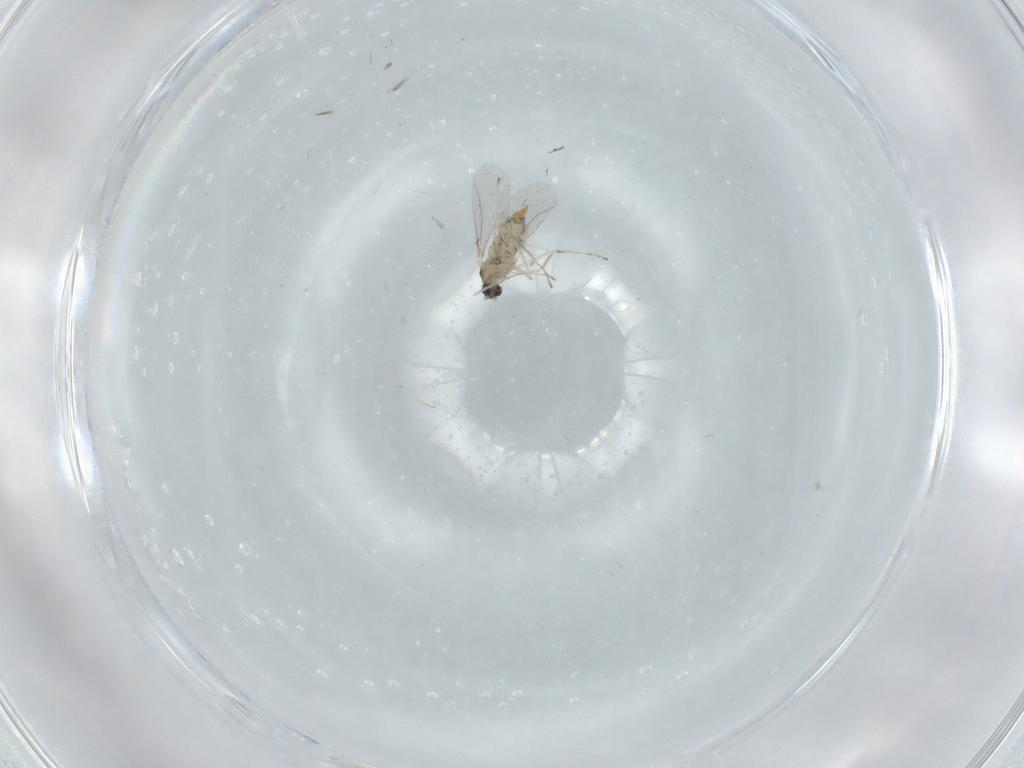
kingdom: Animalia
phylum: Arthropoda
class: Insecta
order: Diptera
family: Cecidomyiidae
